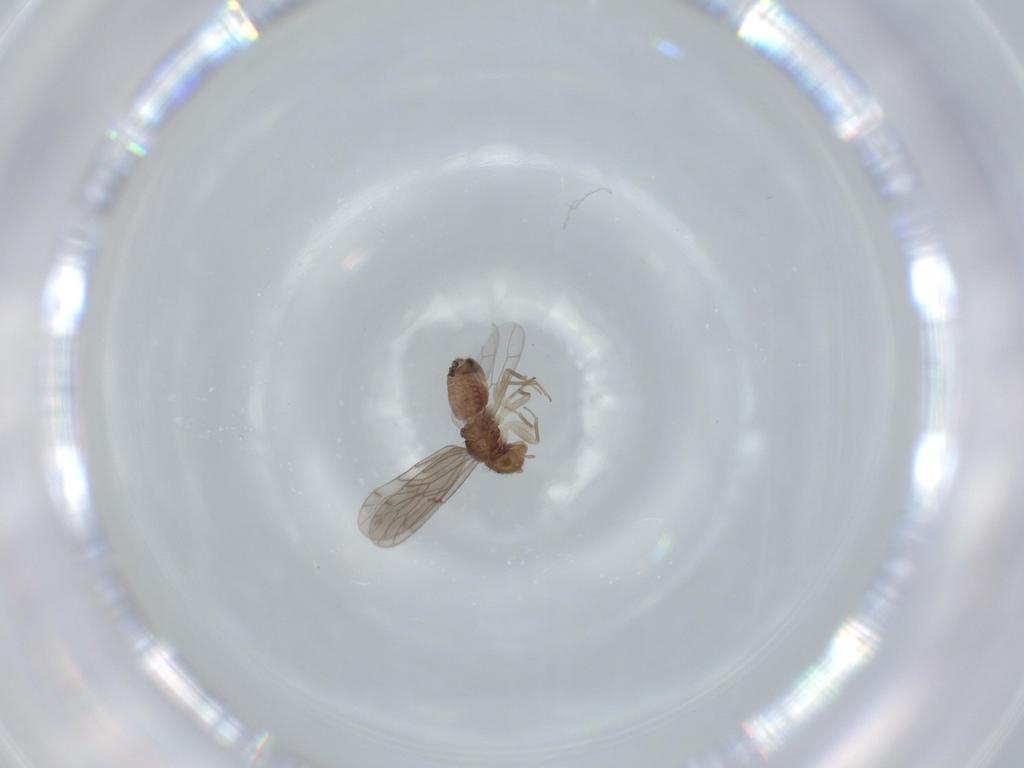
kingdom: Animalia
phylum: Arthropoda
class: Insecta
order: Psocodea
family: Ectopsocidae
